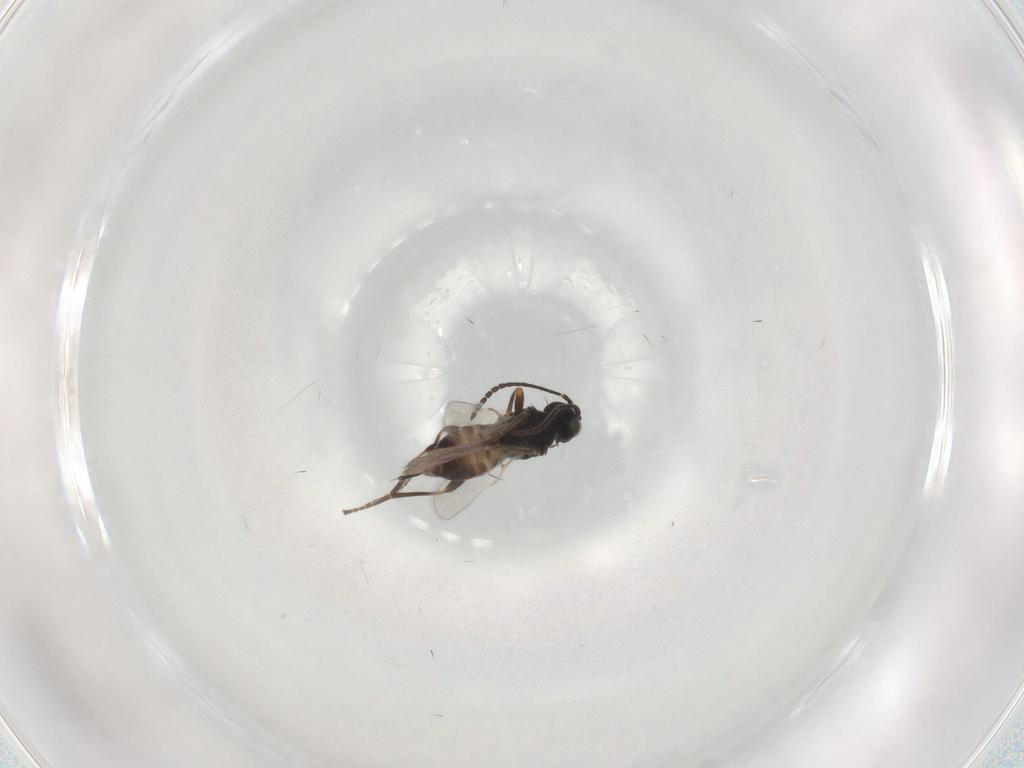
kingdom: Animalia
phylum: Arthropoda
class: Insecta
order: Hymenoptera
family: Braconidae
